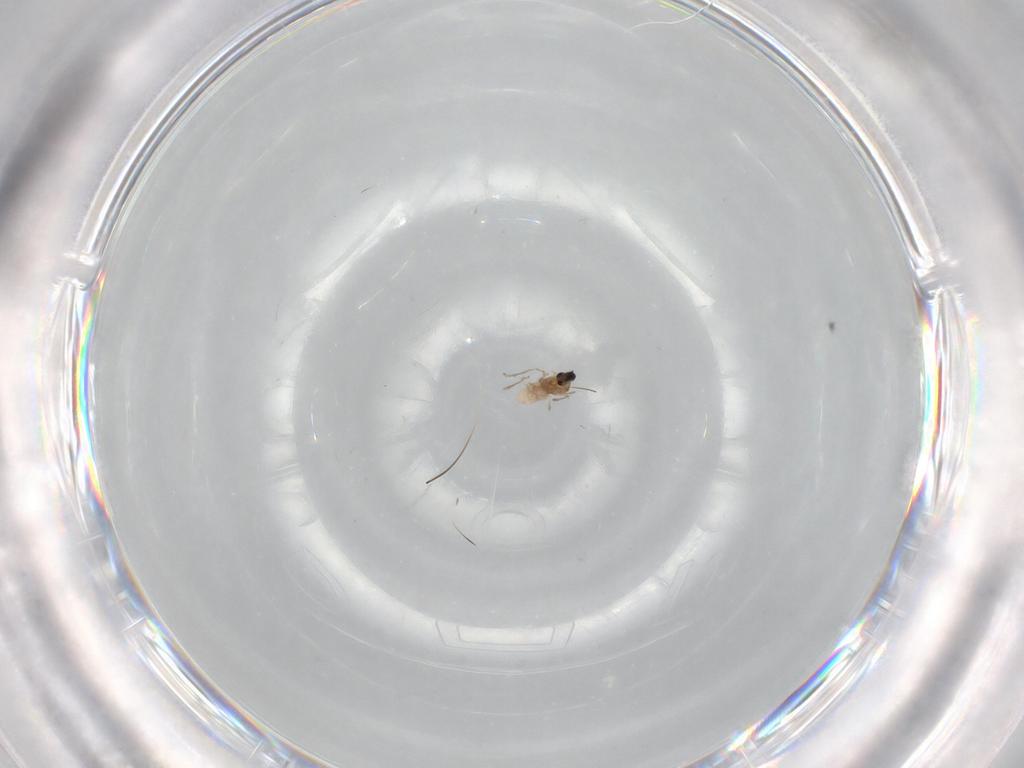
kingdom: Animalia
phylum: Arthropoda
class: Insecta
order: Diptera
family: Cecidomyiidae
